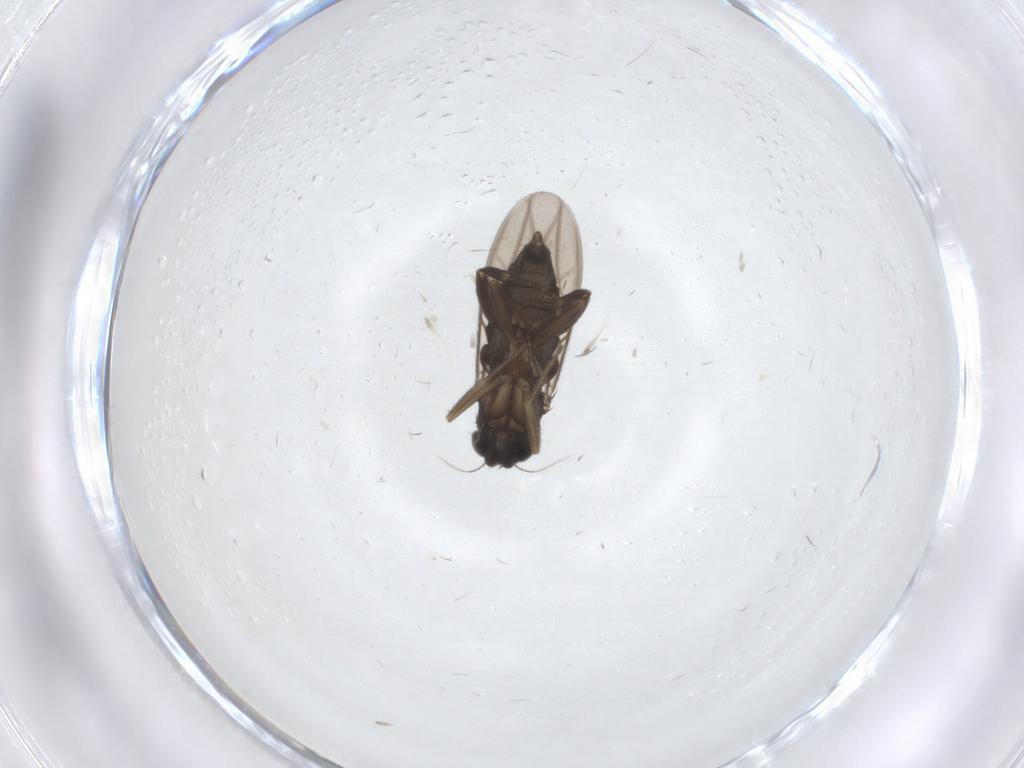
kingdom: Animalia
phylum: Arthropoda
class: Insecta
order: Diptera
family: Phoridae
